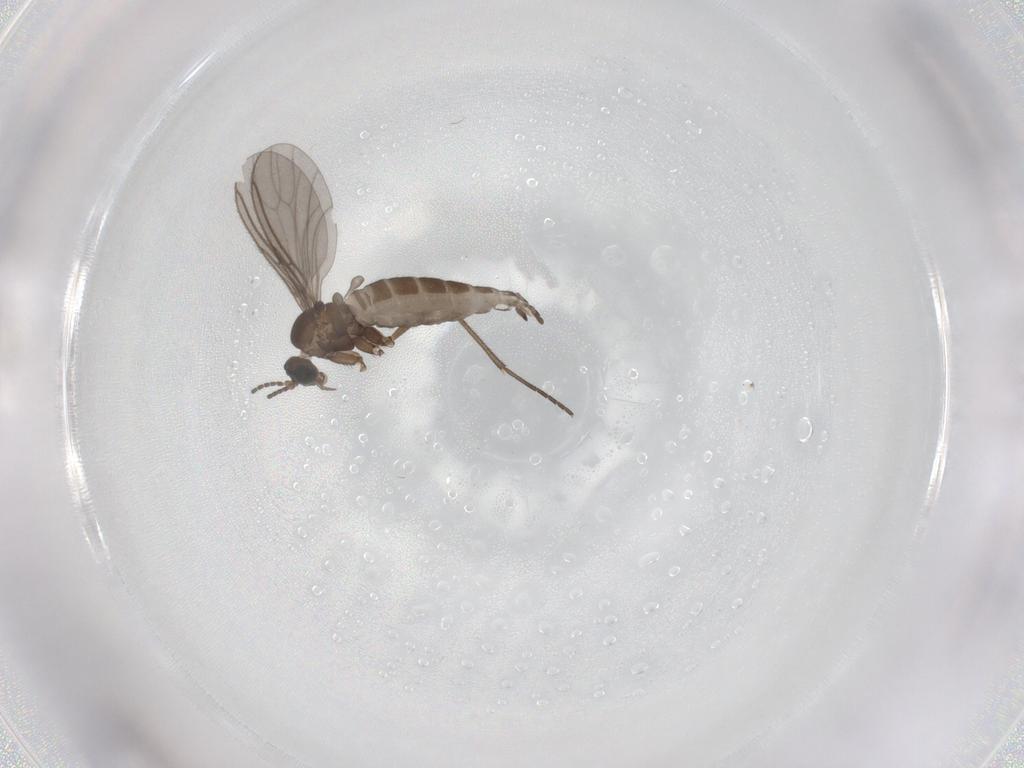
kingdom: Animalia
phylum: Arthropoda
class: Insecta
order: Diptera
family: Sciaridae
